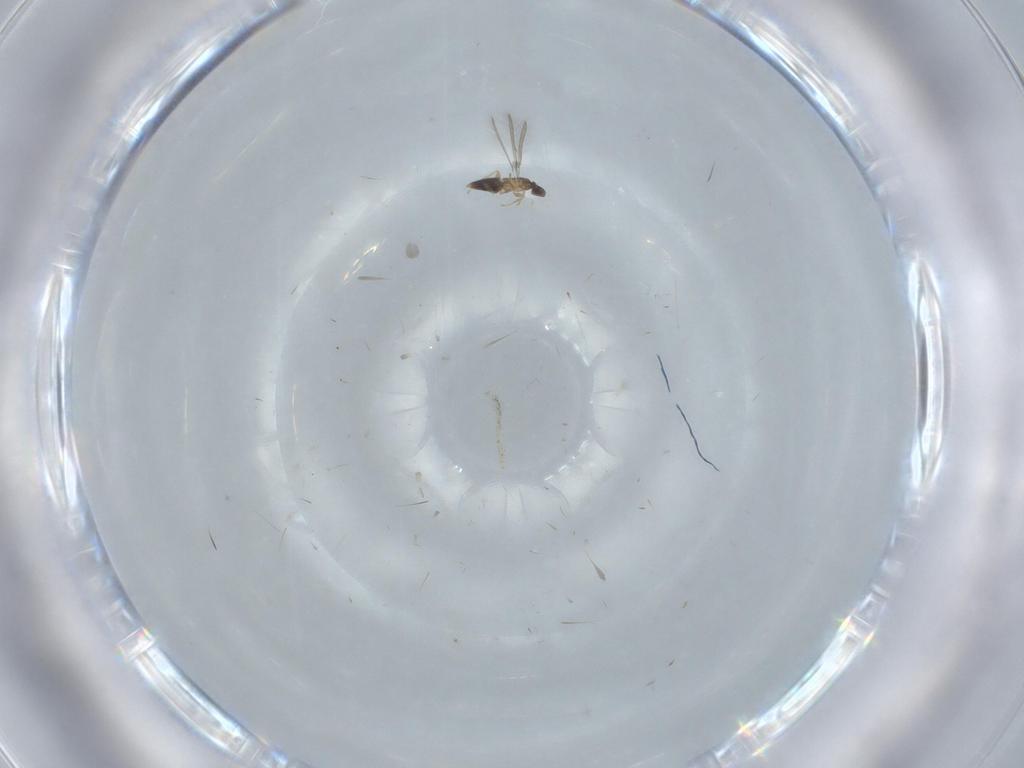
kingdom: Animalia
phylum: Arthropoda
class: Insecta
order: Hymenoptera
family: Mymaridae
